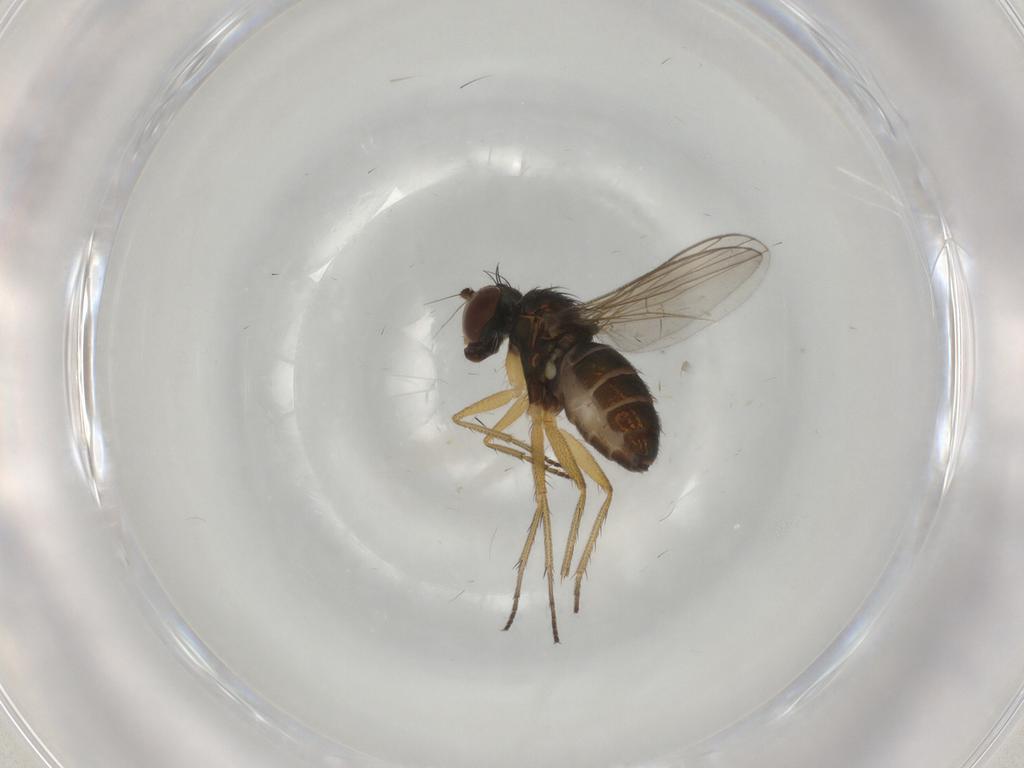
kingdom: Animalia
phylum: Arthropoda
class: Insecta
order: Diptera
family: Dolichopodidae
